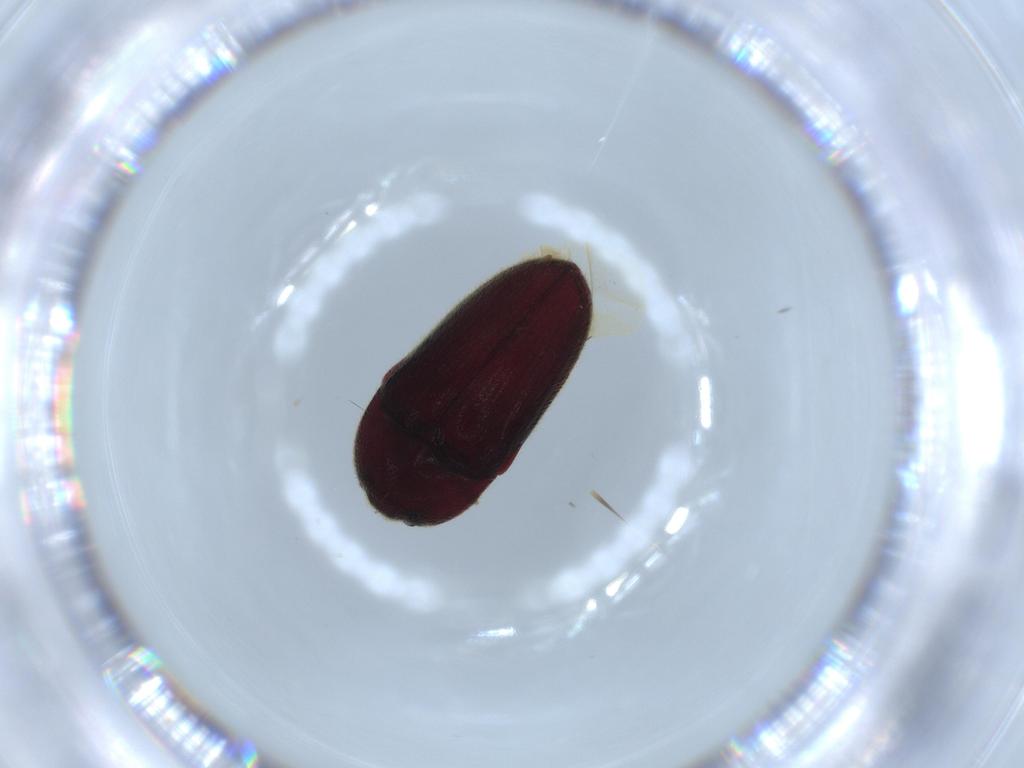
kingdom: Animalia
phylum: Arthropoda
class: Insecta
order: Coleoptera
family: Throscidae
